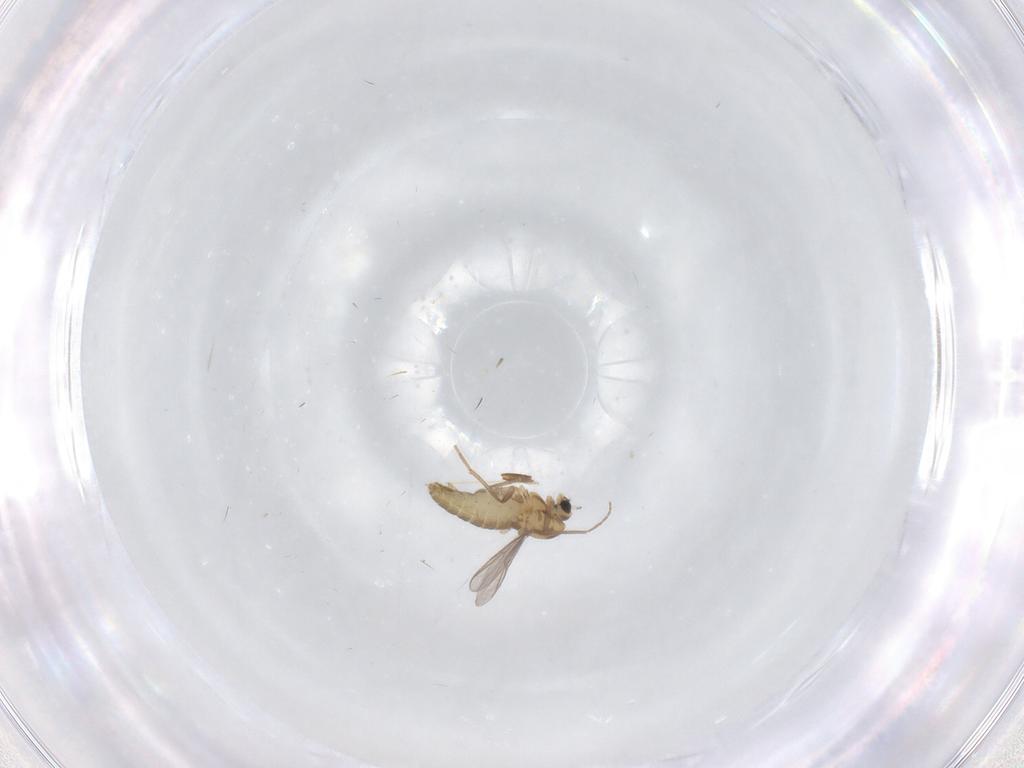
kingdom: Animalia
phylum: Arthropoda
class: Insecta
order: Diptera
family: Chironomidae
